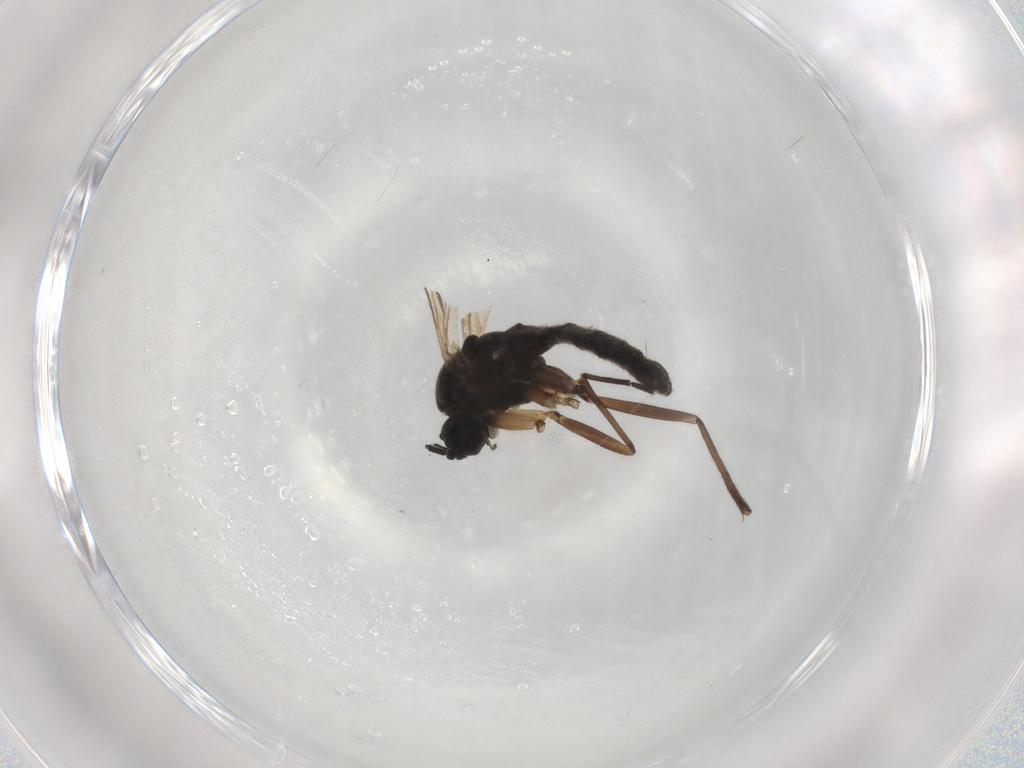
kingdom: Animalia
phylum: Arthropoda
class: Insecta
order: Diptera
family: Sciaridae
